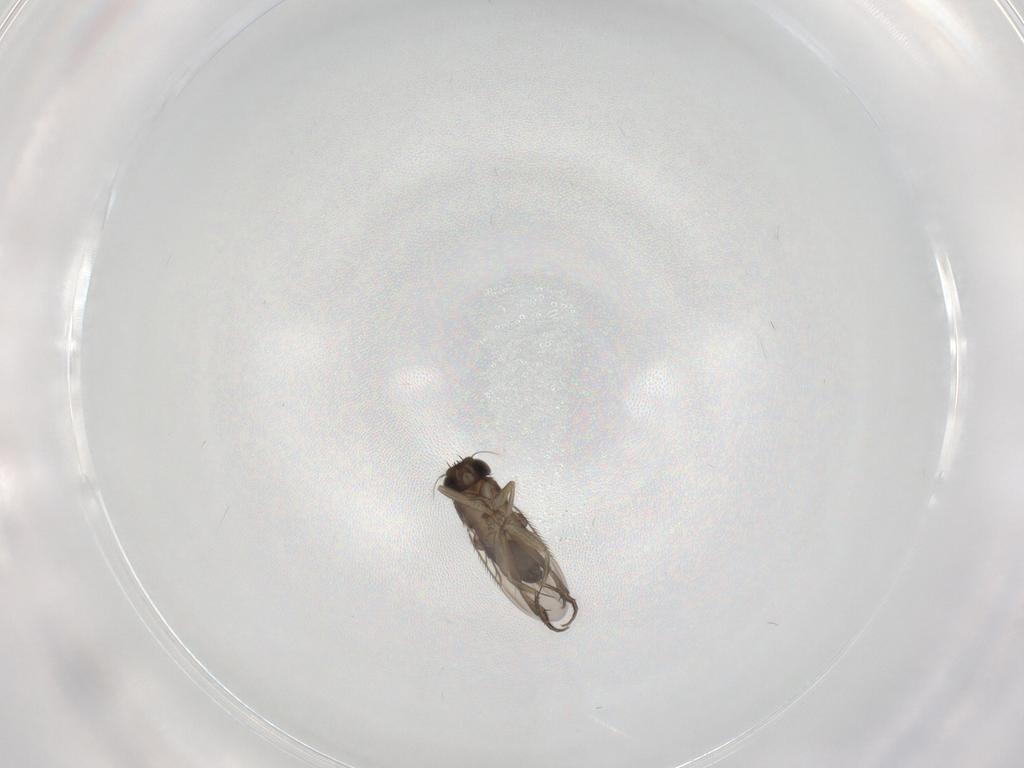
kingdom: Animalia
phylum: Arthropoda
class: Insecta
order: Diptera
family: Phoridae
